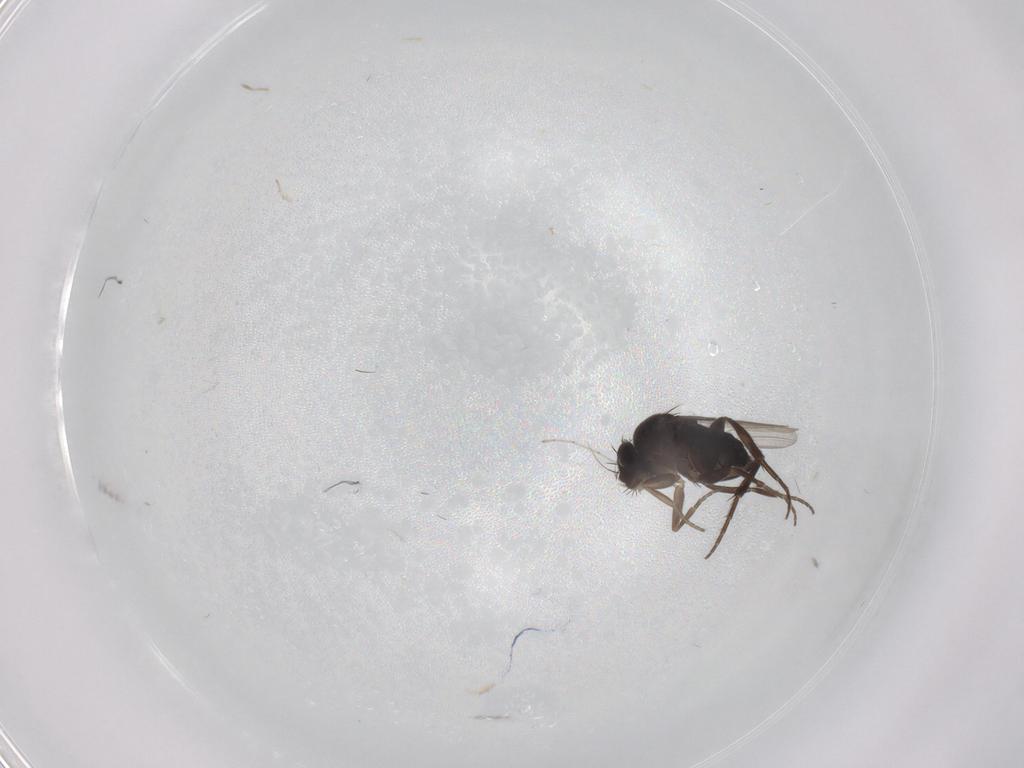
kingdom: Animalia
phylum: Arthropoda
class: Insecta
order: Diptera
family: Phoridae
